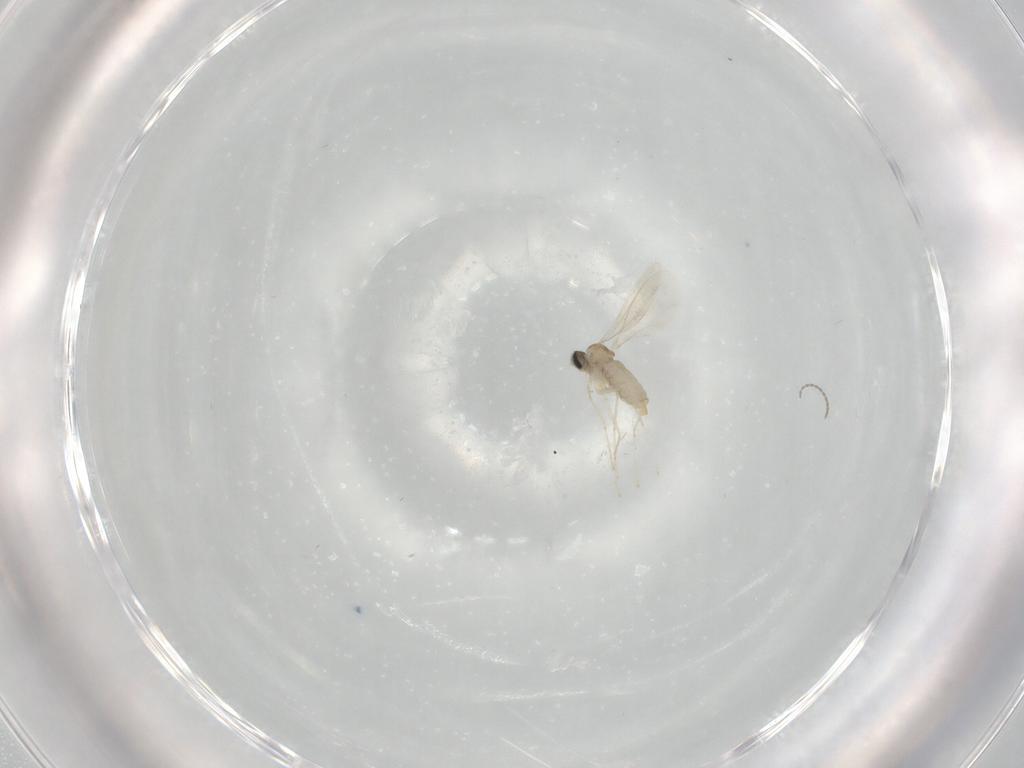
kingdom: Animalia
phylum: Arthropoda
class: Insecta
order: Diptera
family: Cecidomyiidae
